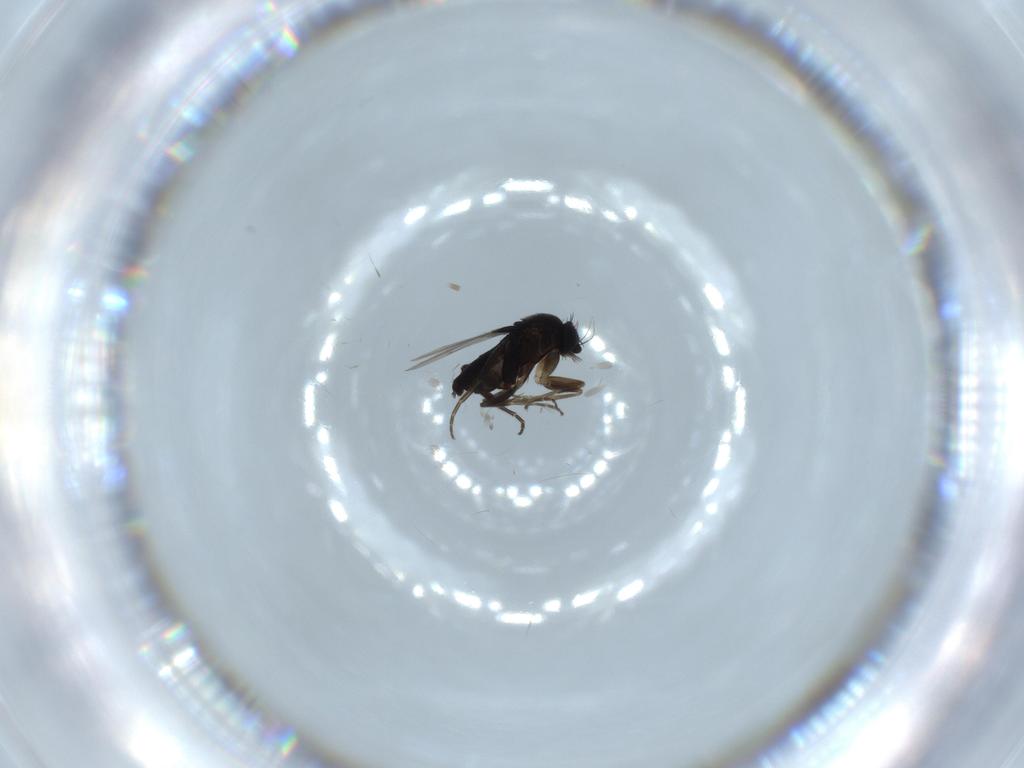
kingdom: Animalia
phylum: Arthropoda
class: Insecta
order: Diptera
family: Phoridae
